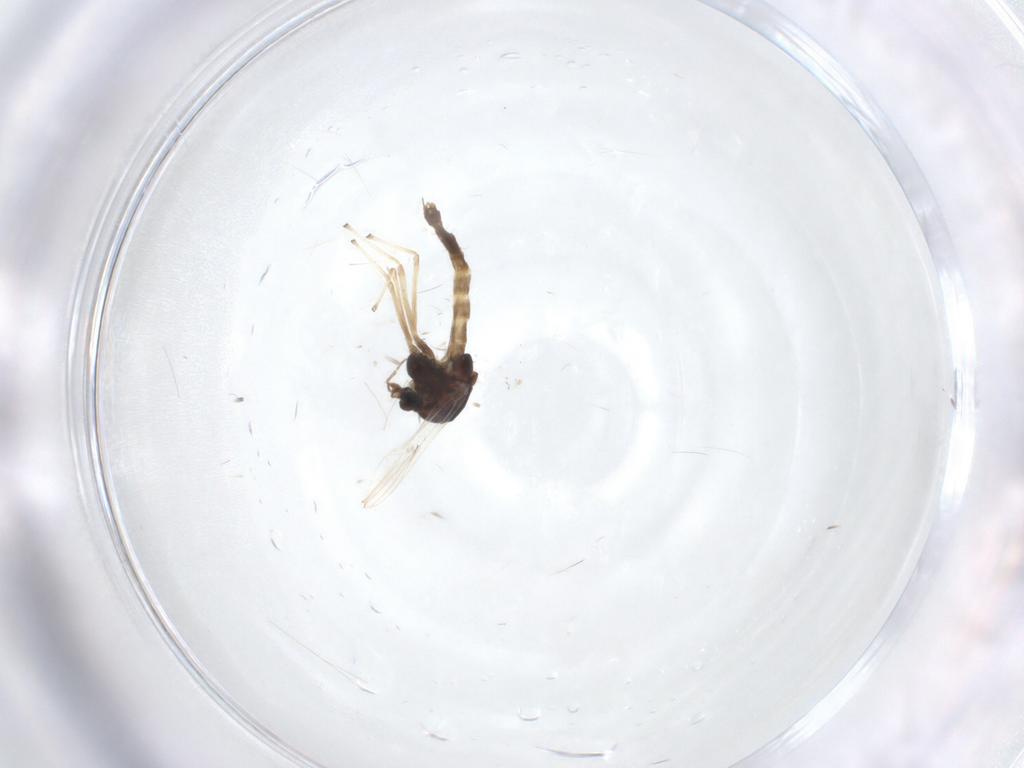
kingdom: Animalia
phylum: Arthropoda
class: Insecta
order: Diptera
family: Chironomidae
